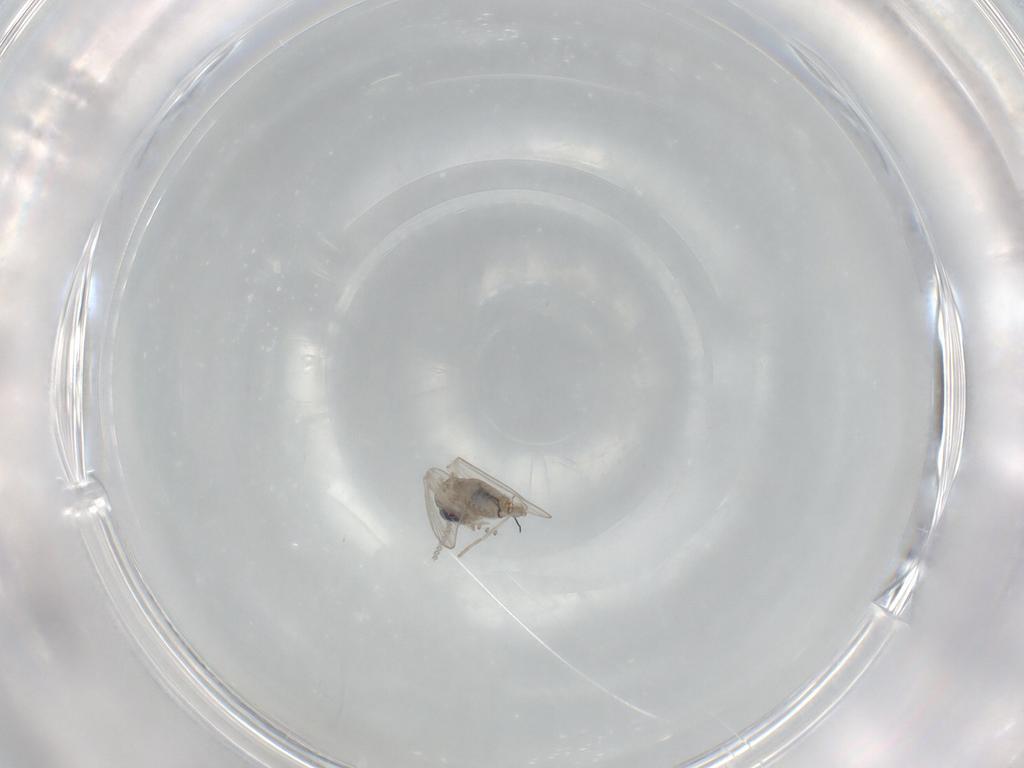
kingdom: Animalia
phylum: Arthropoda
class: Insecta
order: Diptera
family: Psychodidae
